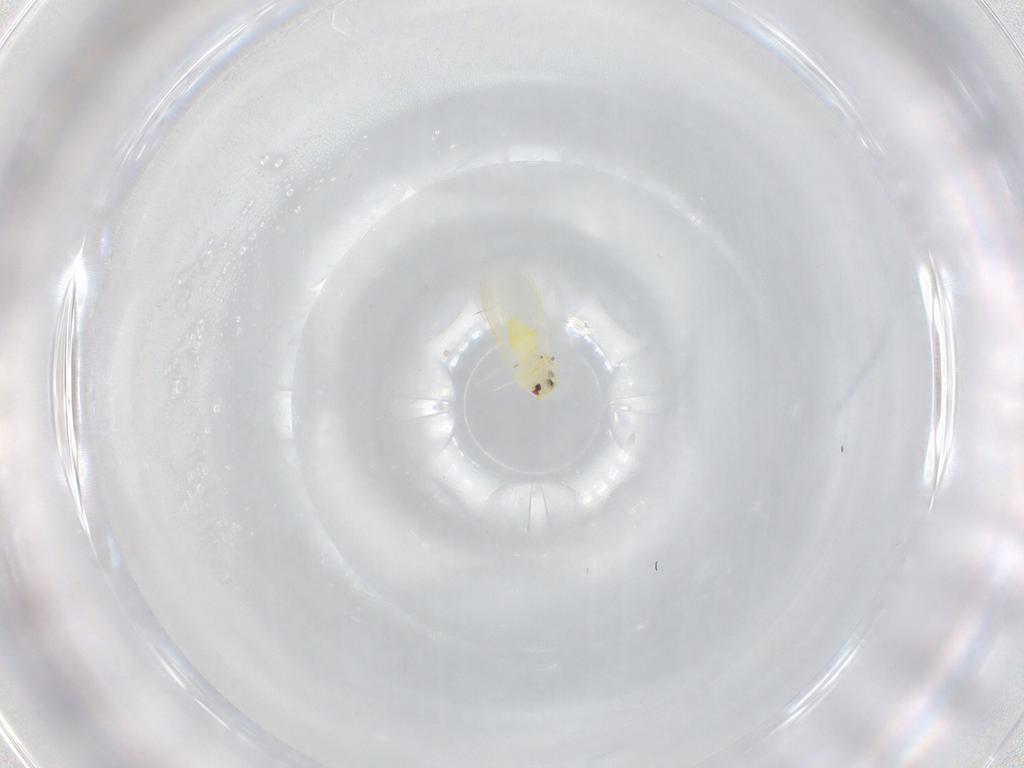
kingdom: Animalia
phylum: Arthropoda
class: Insecta
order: Hemiptera
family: Aleyrodidae
